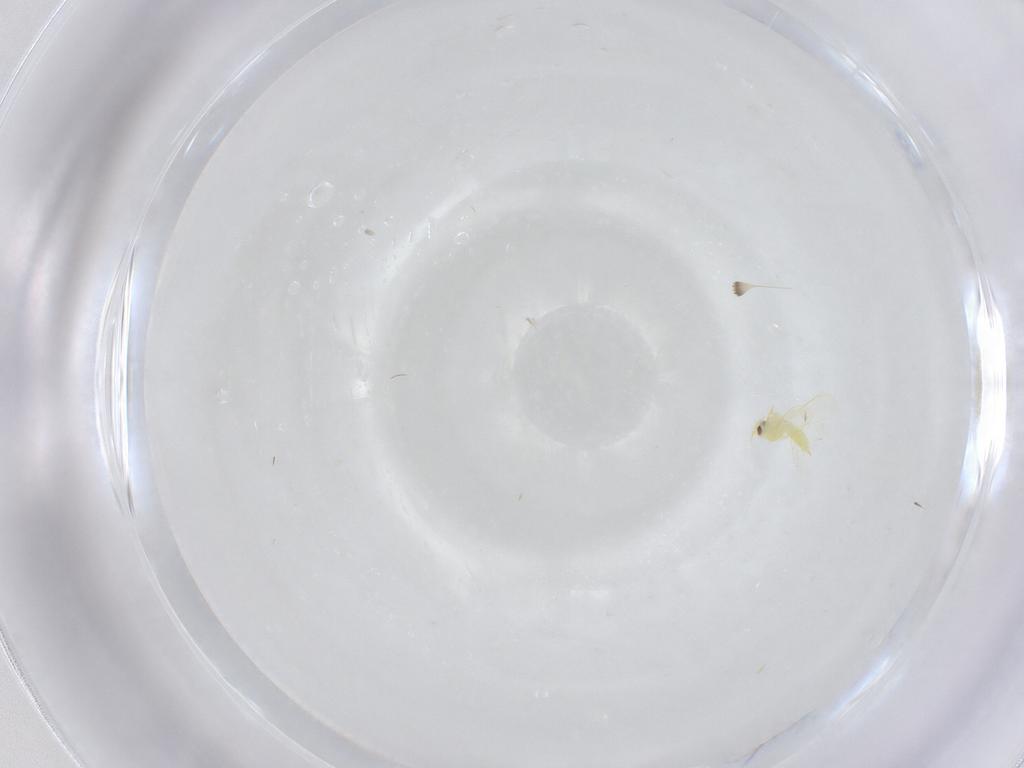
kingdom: Animalia
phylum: Arthropoda
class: Insecta
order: Hemiptera
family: Aleyrodidae
